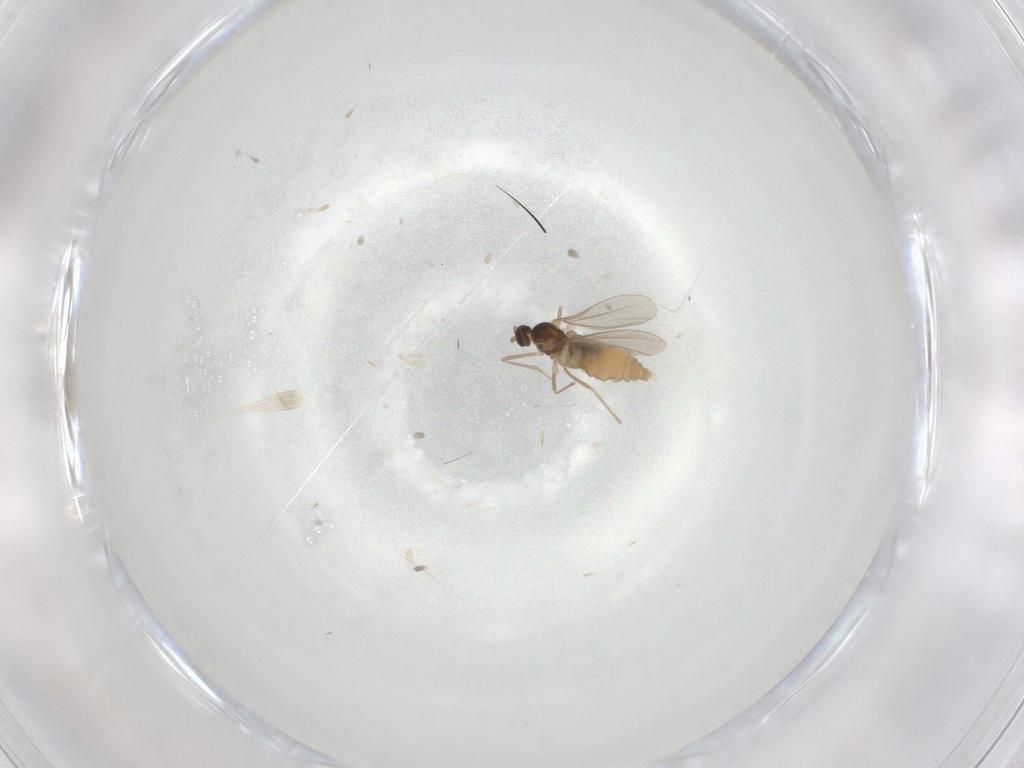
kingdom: Animalia
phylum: Arthropoda
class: Insecta
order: Diptera
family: Cecidomyiidae
